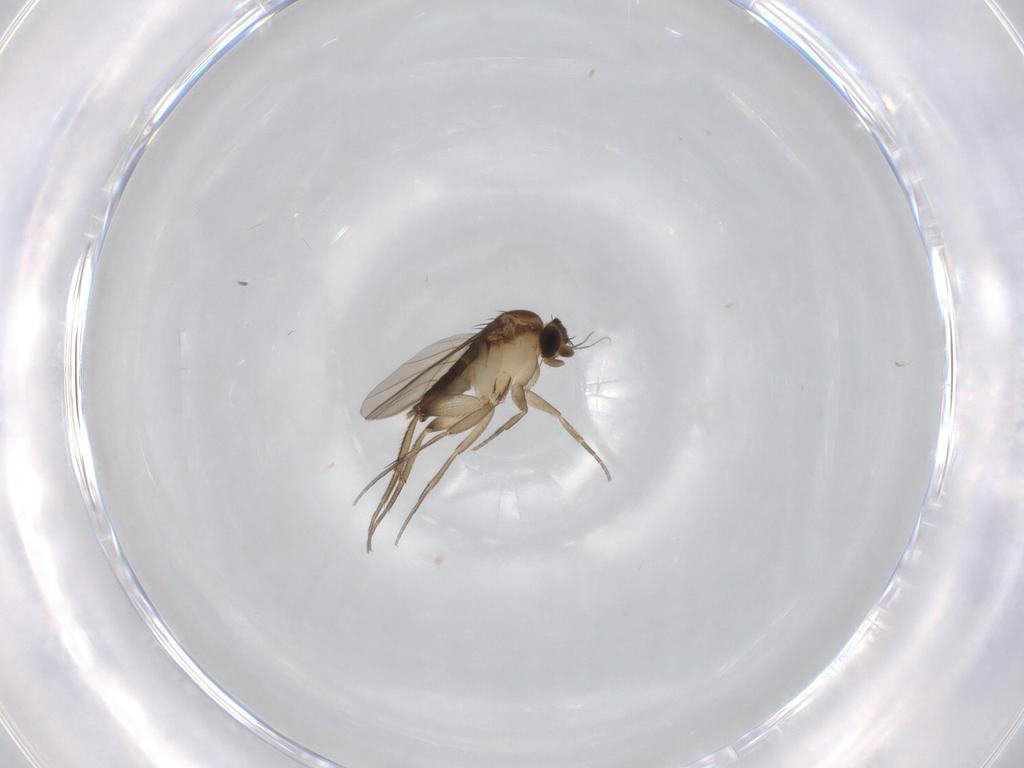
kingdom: Animalia
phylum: Arthropoda
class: Insecta
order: Diptera
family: Phoridae
